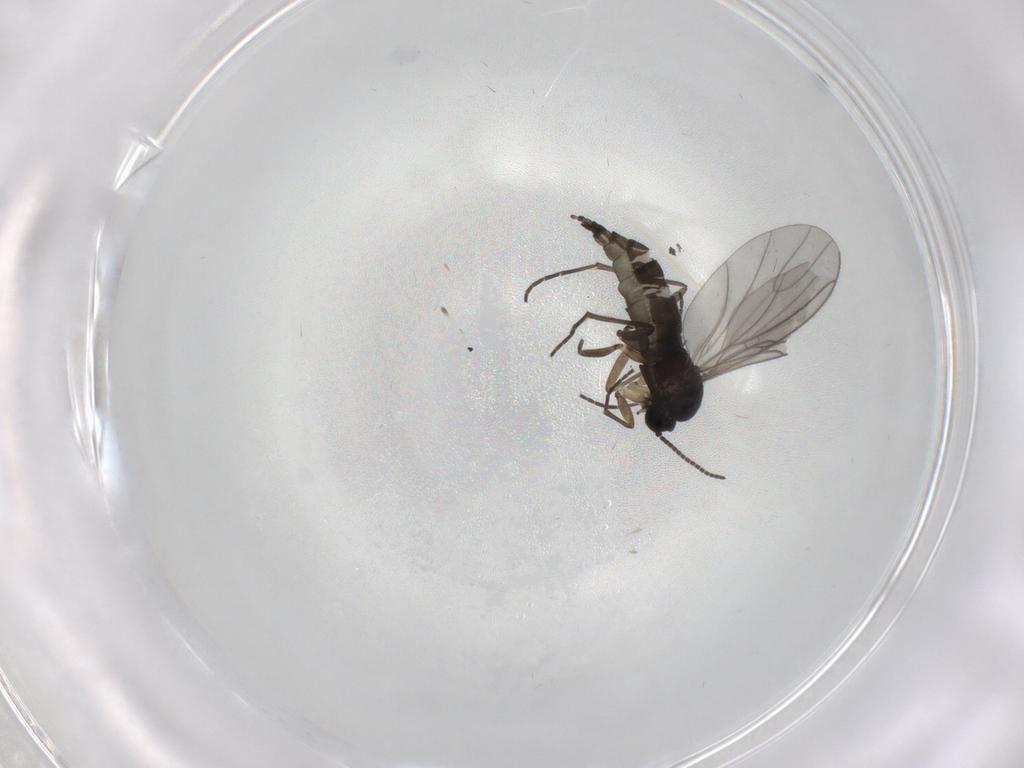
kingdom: Animalia
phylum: Arthropoda
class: Insecta
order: Diptera
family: Sciaridae
